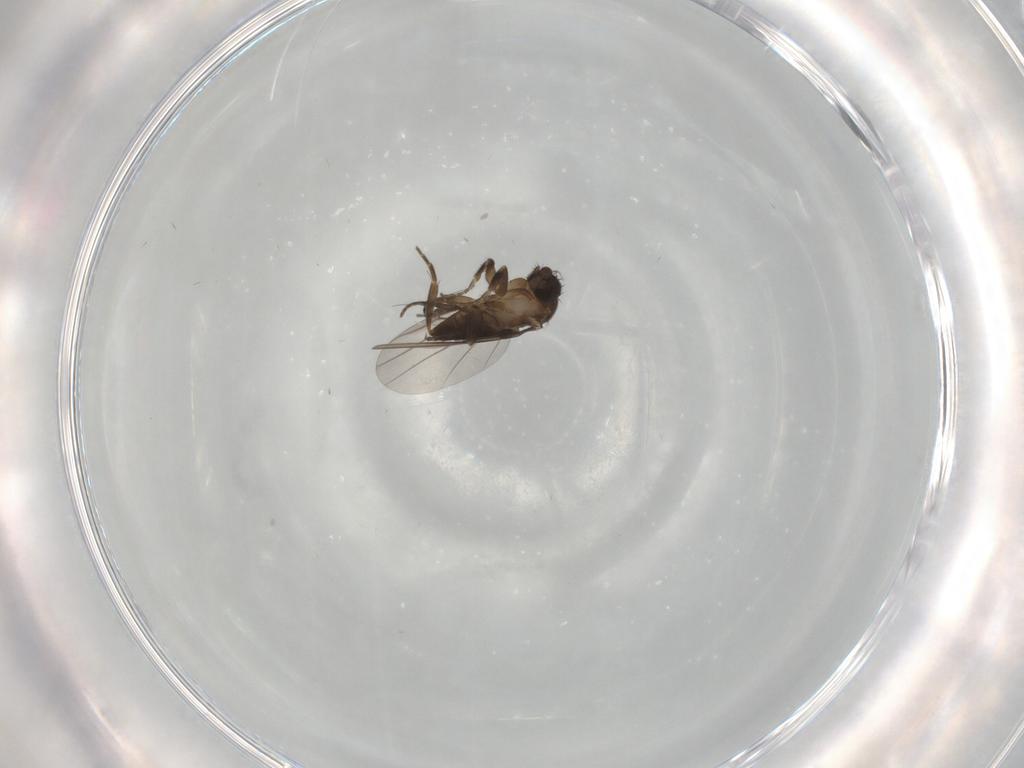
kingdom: Animalia
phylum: Arthropoda
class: Insecta
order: Diptera
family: Phoridae
